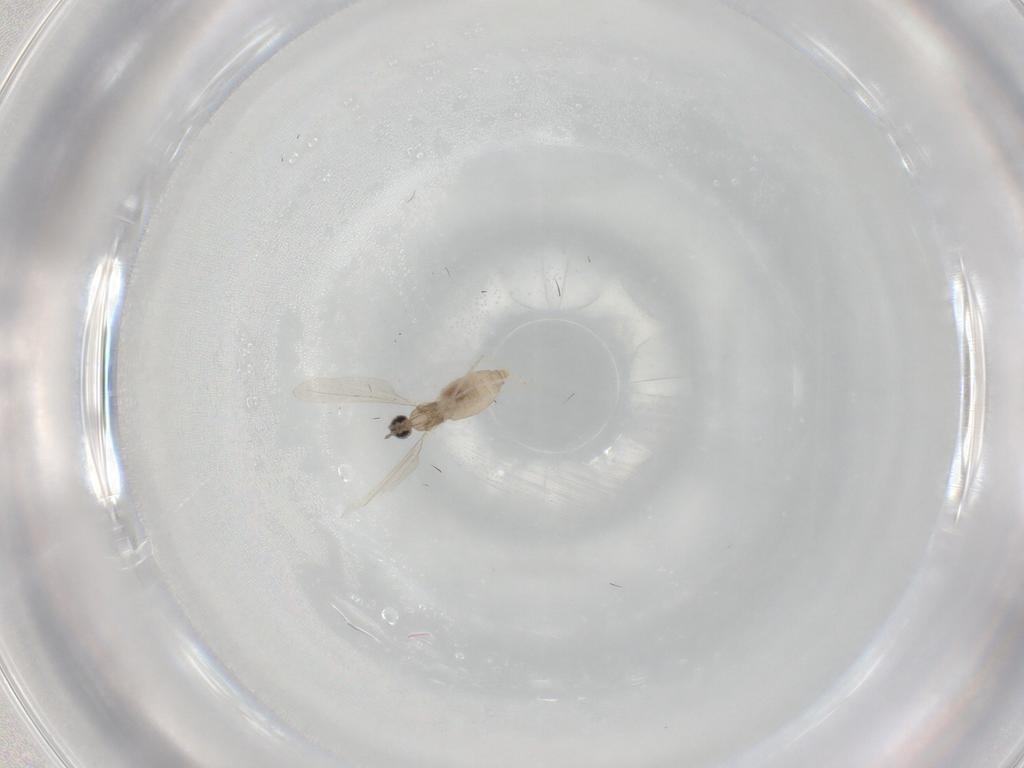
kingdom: Animalia
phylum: Arthropoda
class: Insecta
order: Diptera
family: Cecidomyiidae
